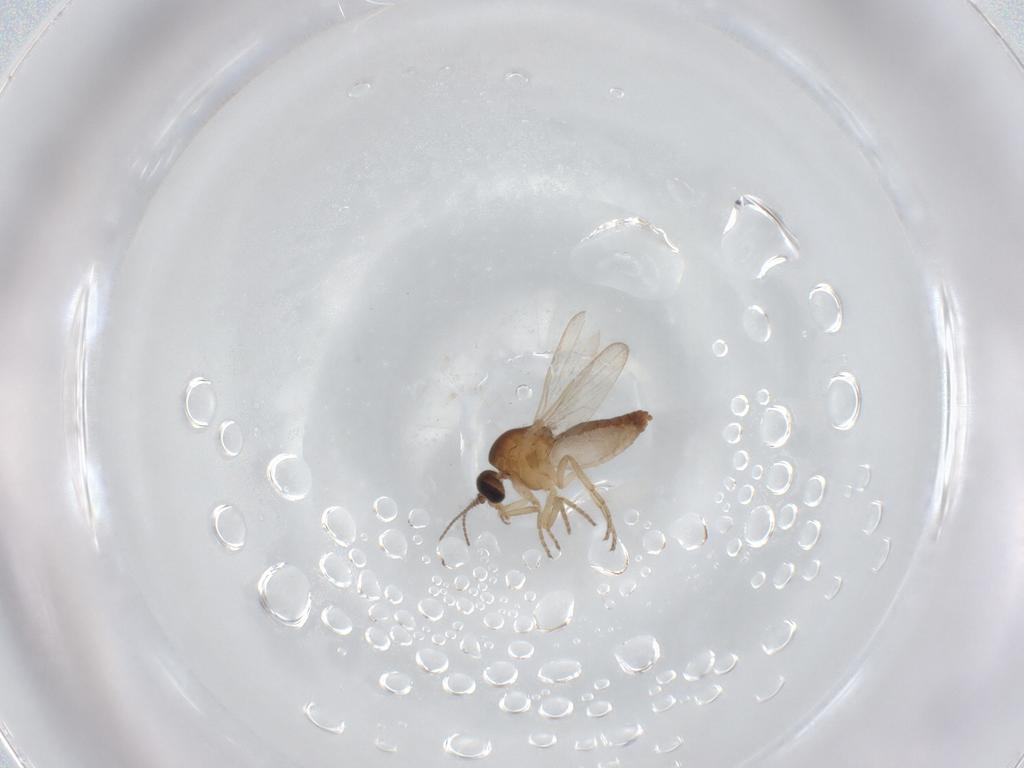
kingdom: Animalia
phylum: Arthropoda
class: Insecta
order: Diptera
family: Ceratopogonidae
